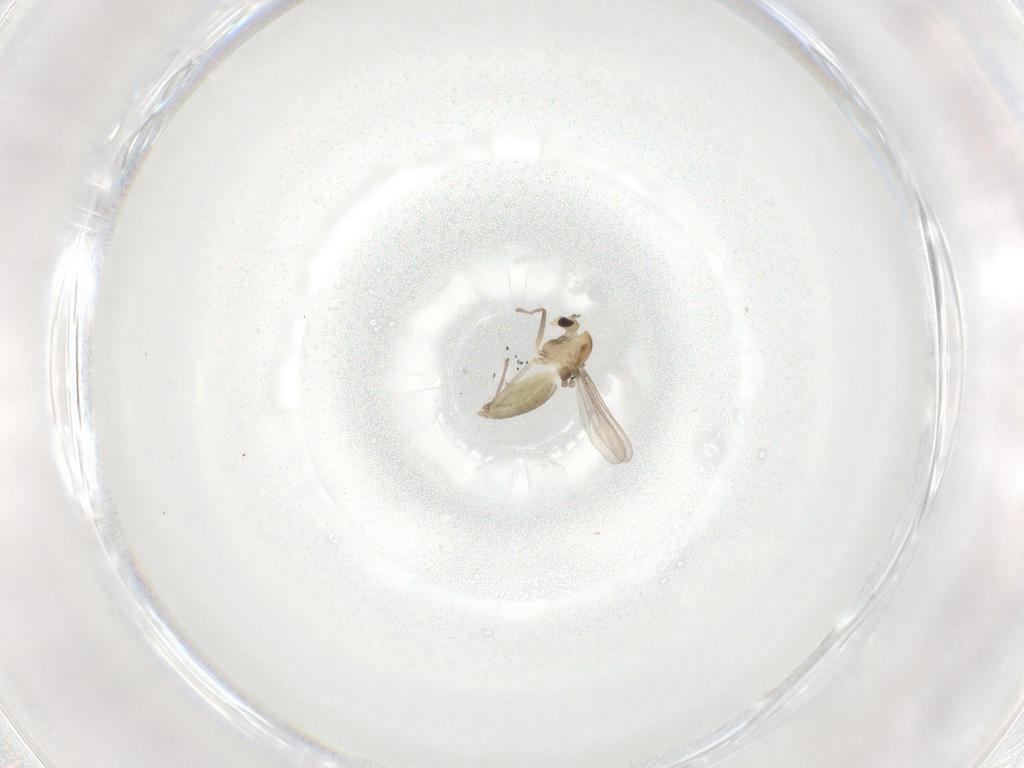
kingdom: Animalia
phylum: Arthropoda
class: Insecta
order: Diptera
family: Chironomidae
